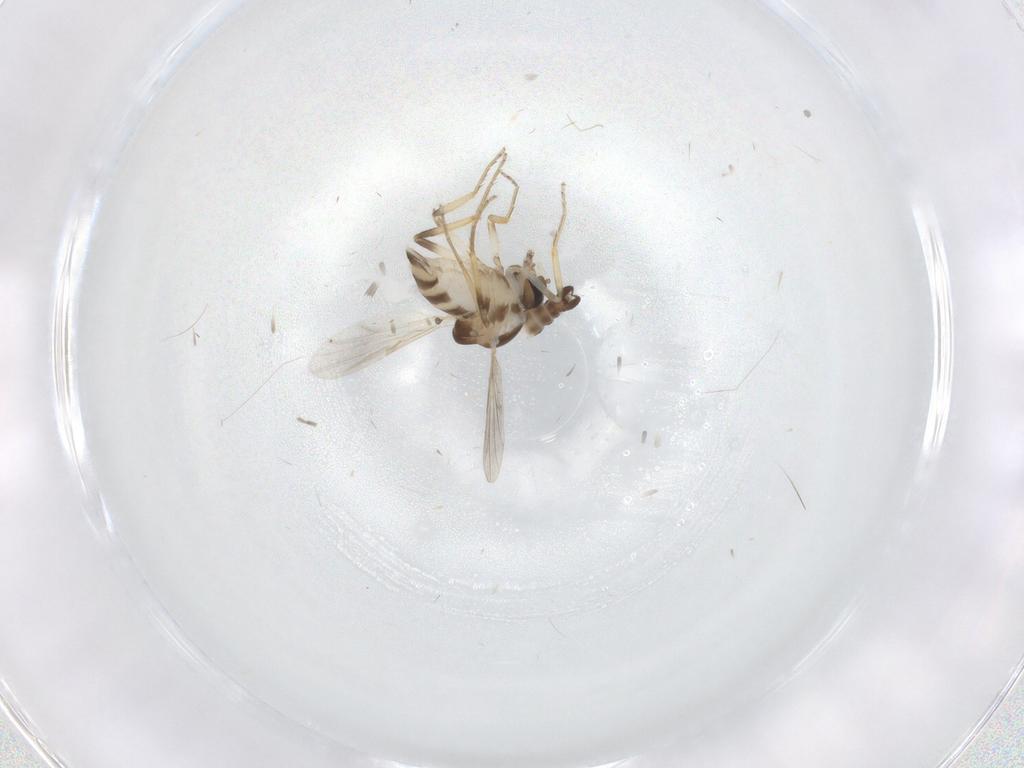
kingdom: Animalia
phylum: Arthropoda
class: Insecta
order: Diptera
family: Cecidomyiidae
